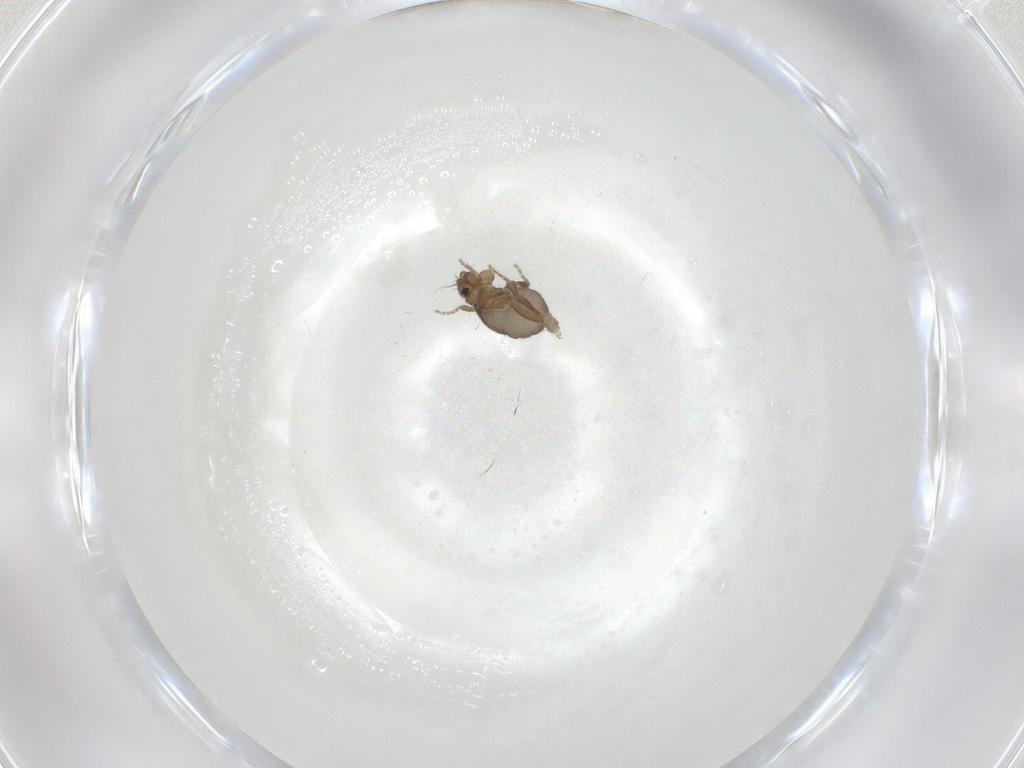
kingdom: Animalia
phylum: Arthropoda
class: Insecta
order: Diptera
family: Phoridae
